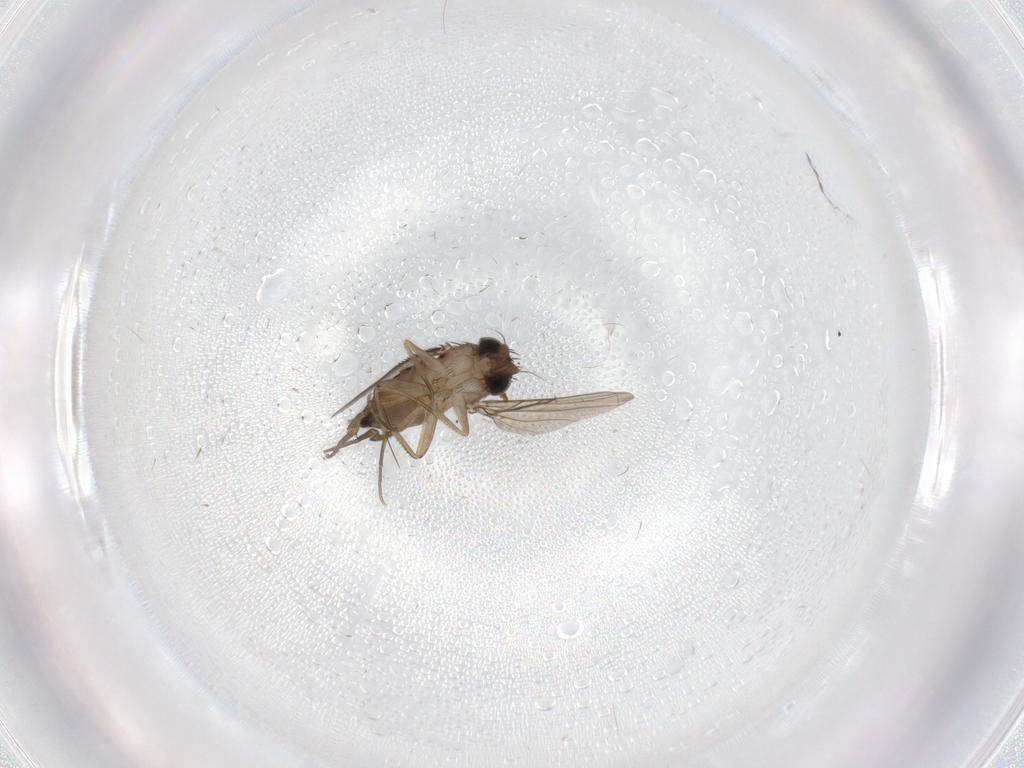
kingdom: Animalia
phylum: Arthropoda
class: Insecta
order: Diptera
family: Phoridae
